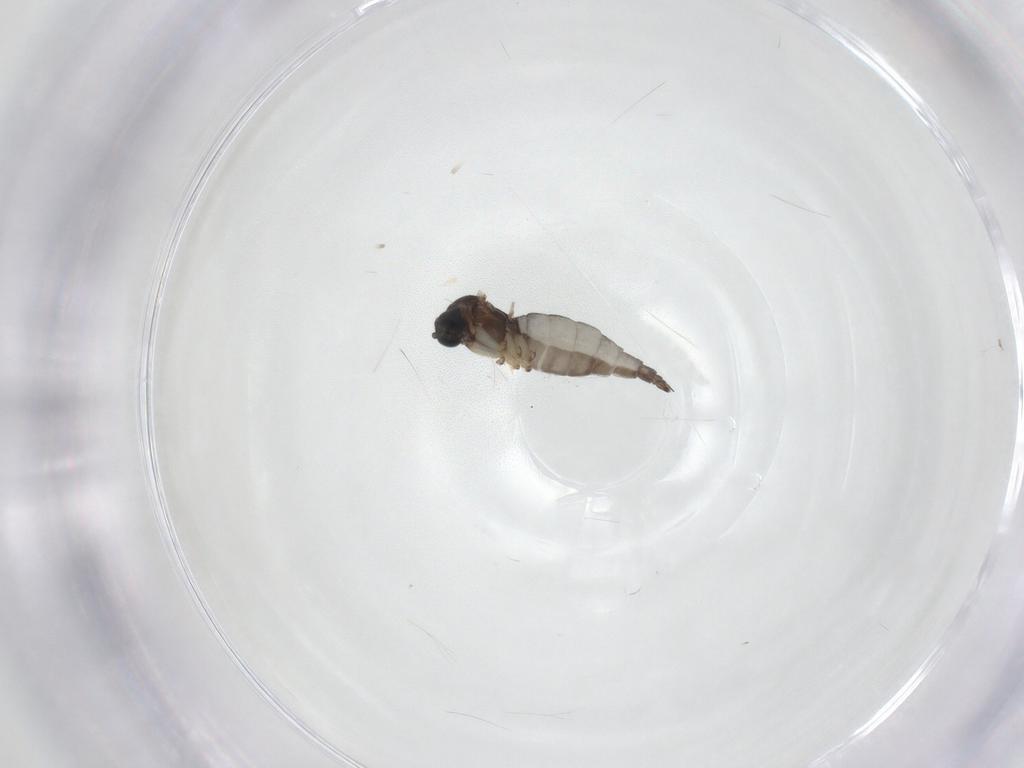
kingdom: Animalia
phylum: Arthropoda
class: Insecta
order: Diptera
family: Sciaridae
